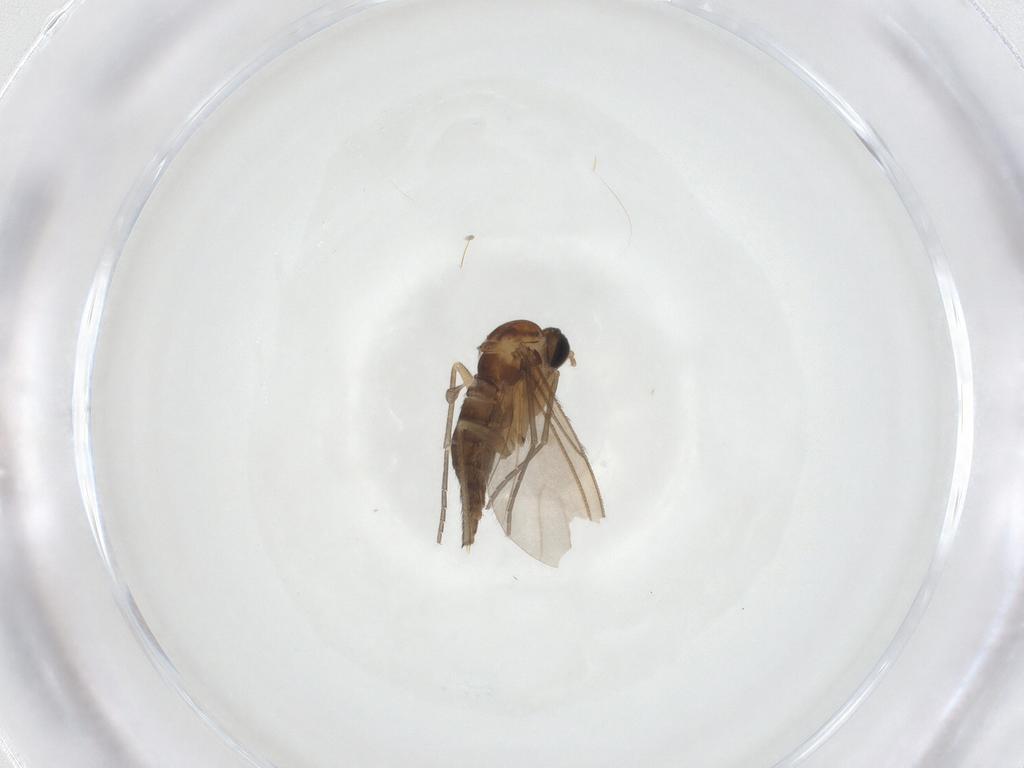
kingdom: Animalia
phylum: Arthropoda
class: Insecta
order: Diptera
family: Sciaridae
